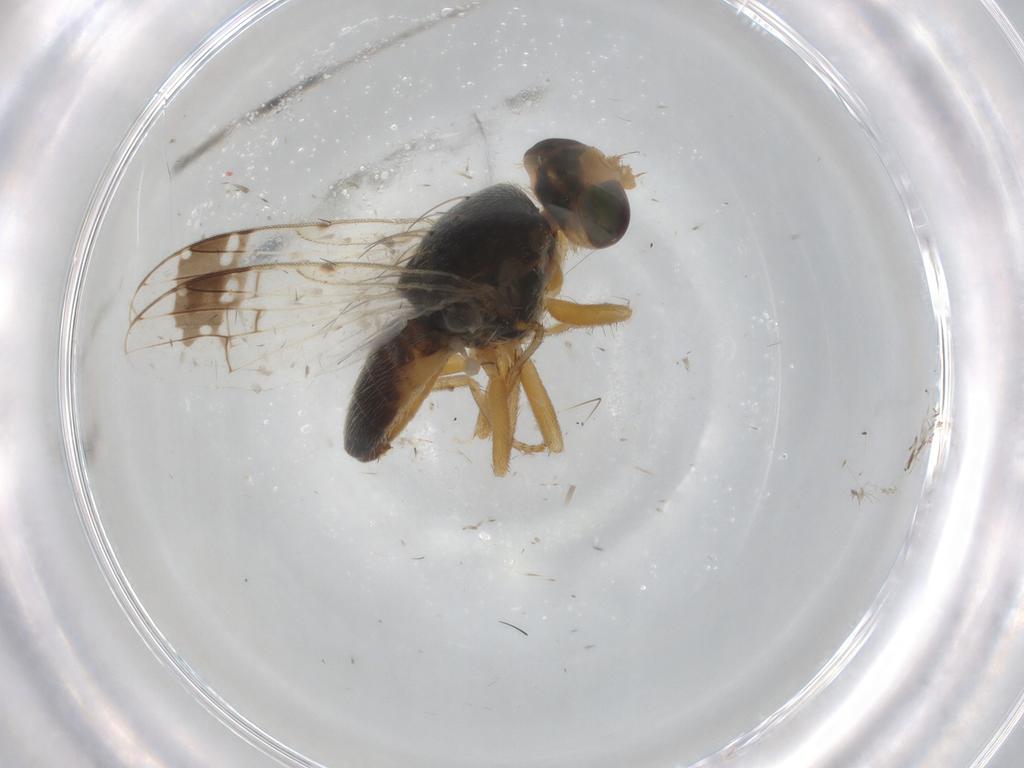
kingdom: Animalia
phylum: Arthropoda
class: Insecta
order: Diptera
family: Tephritidae
